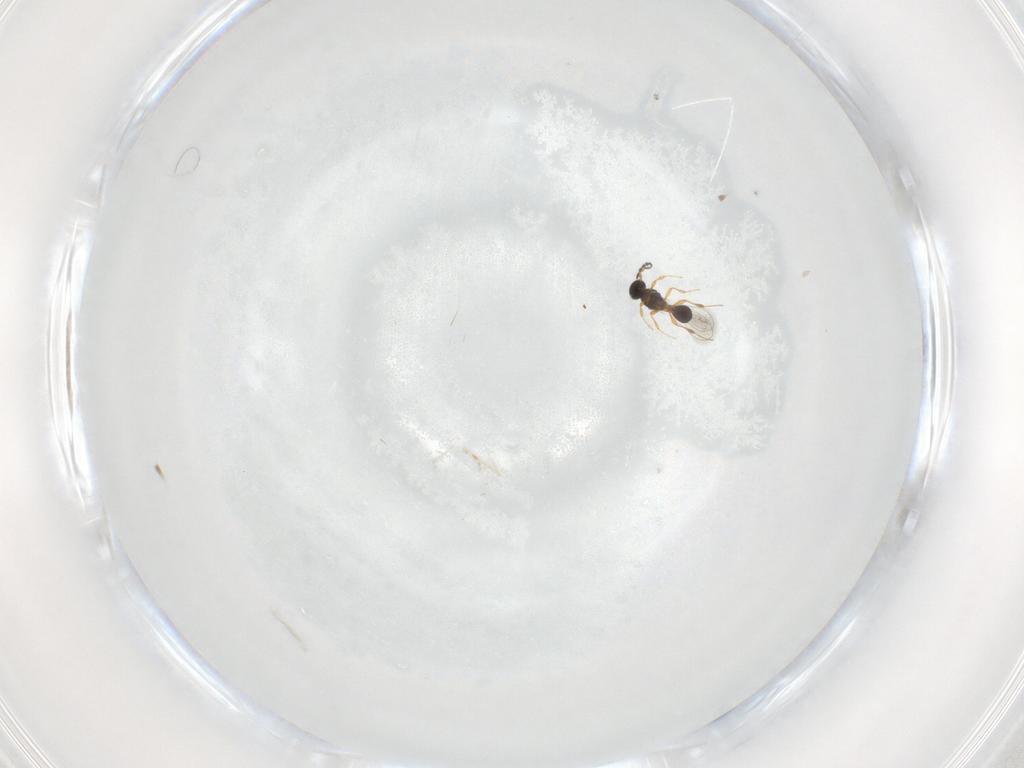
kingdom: Animalia
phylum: Arthropoda
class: Insecta
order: Hymenoptera
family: Platygastridae
